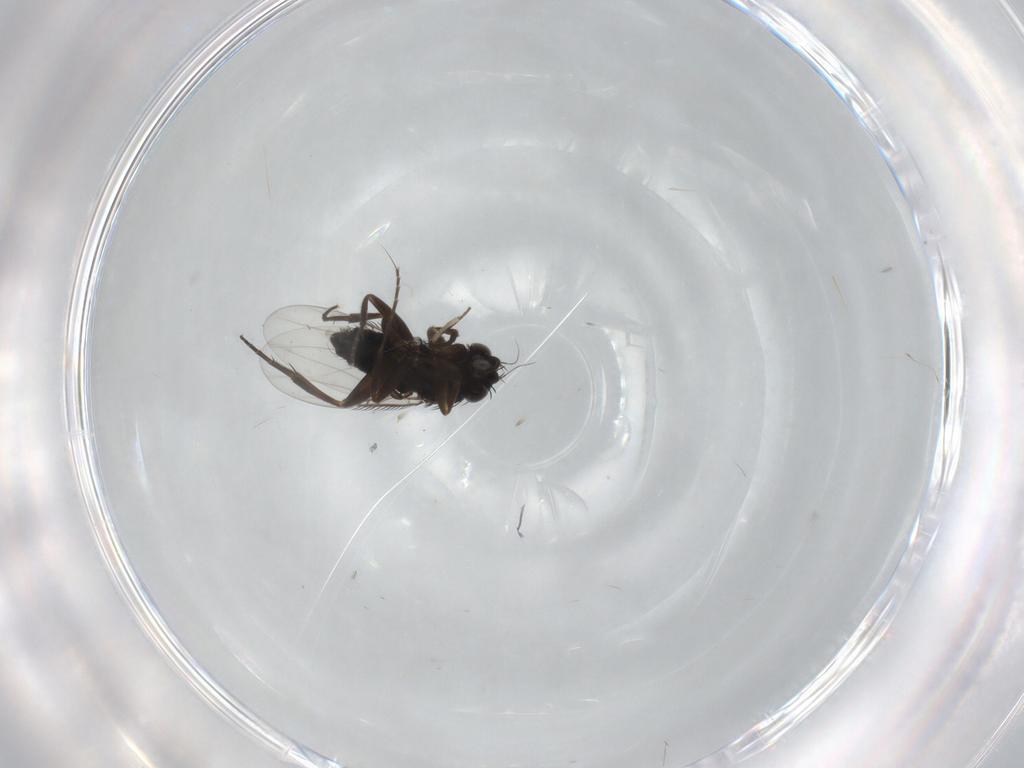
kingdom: Animalia
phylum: Arthropoda
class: Insecta
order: Diptera
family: Phoridae
